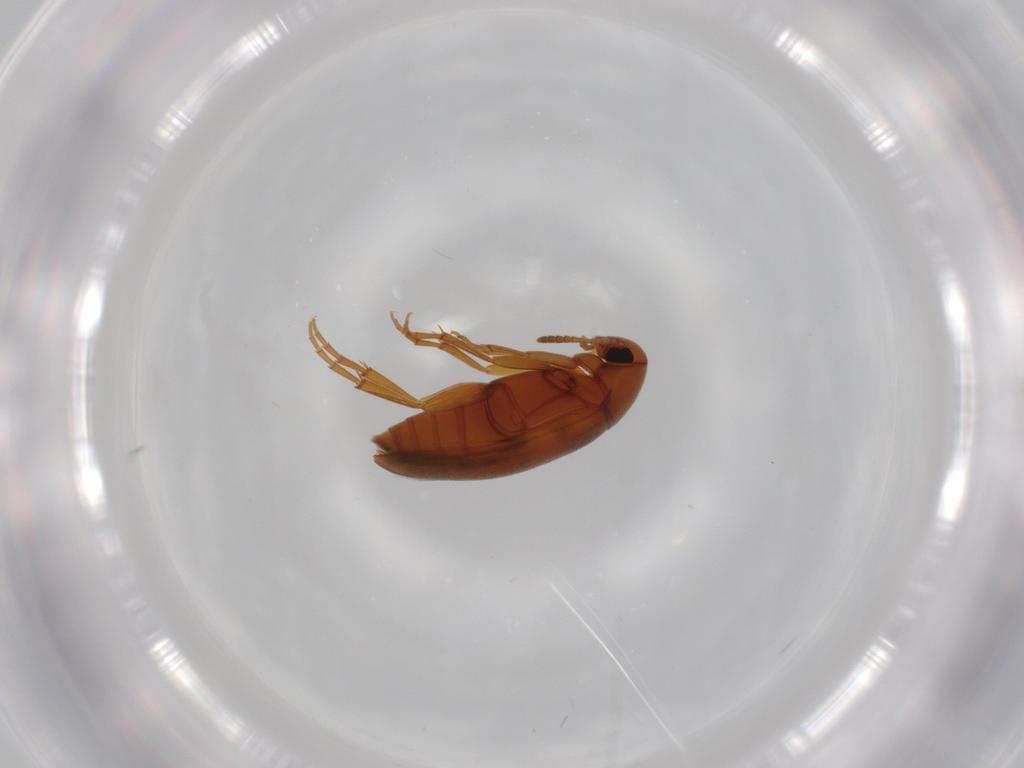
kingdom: Animalia
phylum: Arthropoda
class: Insecta
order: Coleoptera
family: Scraptiidae
